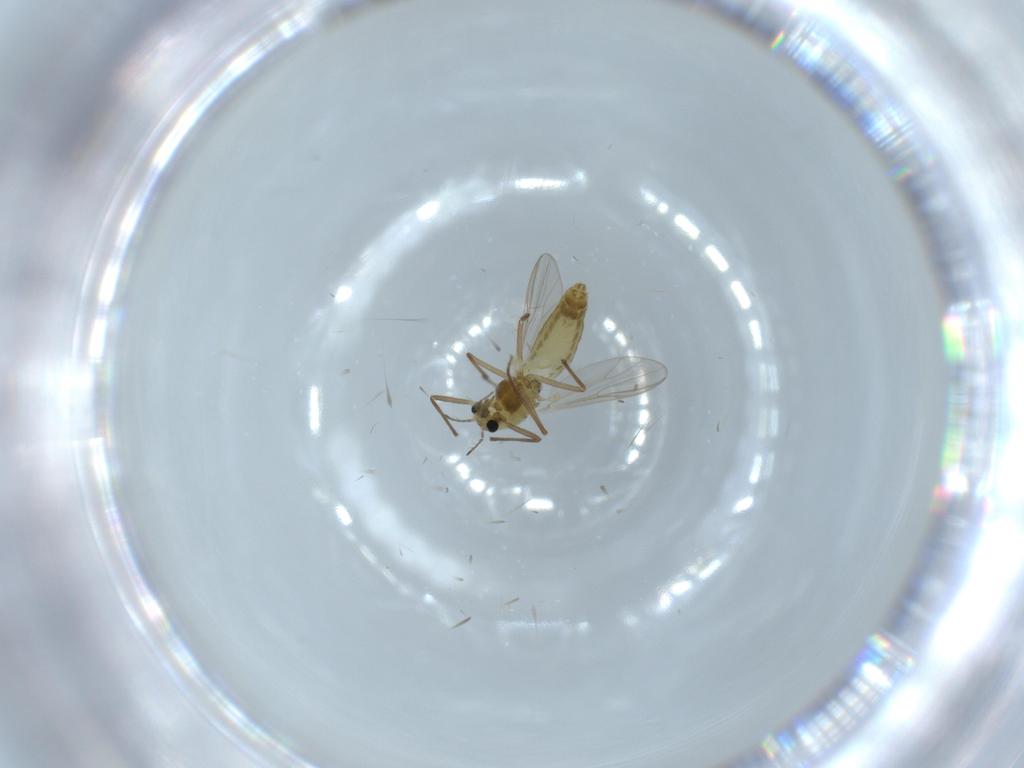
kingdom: Animalia
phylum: Arthropoda
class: Insecta
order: Diptera
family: Chironomidae
